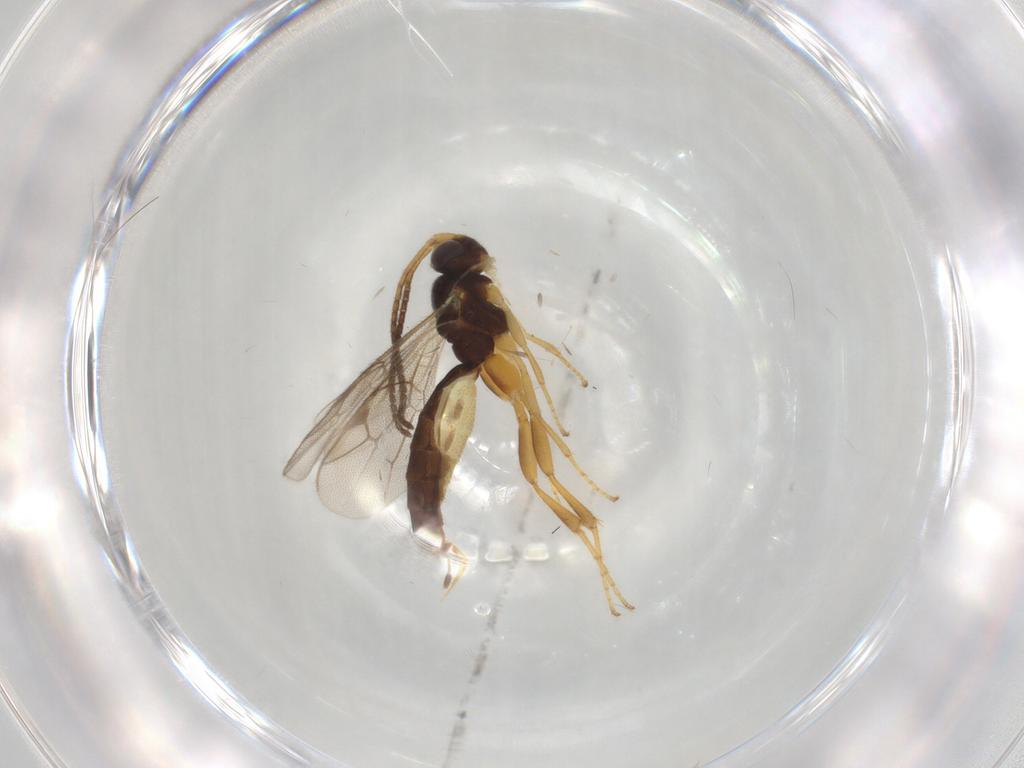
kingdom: Animalia
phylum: Arthropoda
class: Insecta
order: Hymenoptera
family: Ichneumonidae
